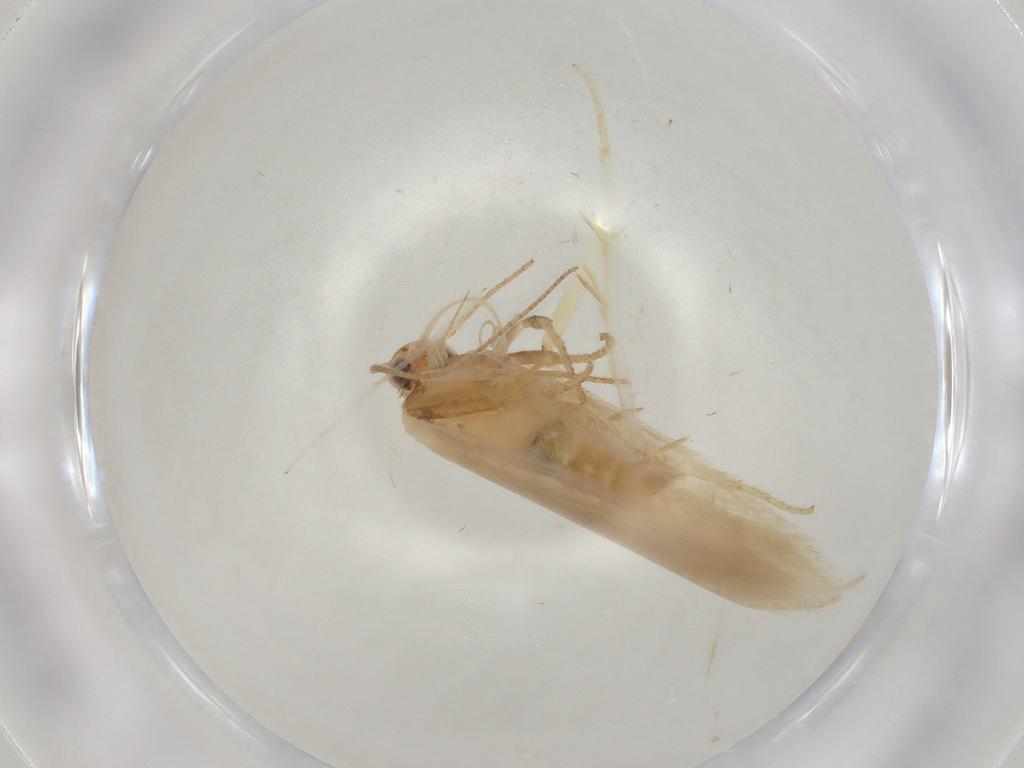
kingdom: Animalia
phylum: Arthropoda
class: Insecta
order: Lepidoptera
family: Gelechiidae
